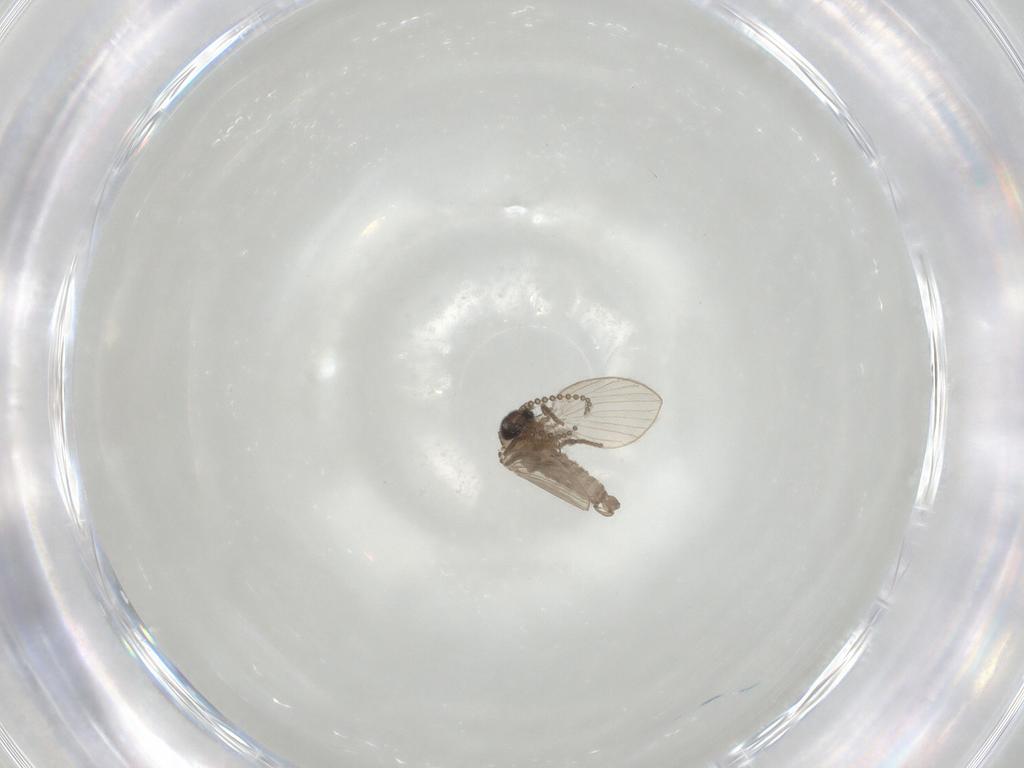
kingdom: Animalia
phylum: Arthropoda
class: Insecta
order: Diptera
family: Psychodidae
